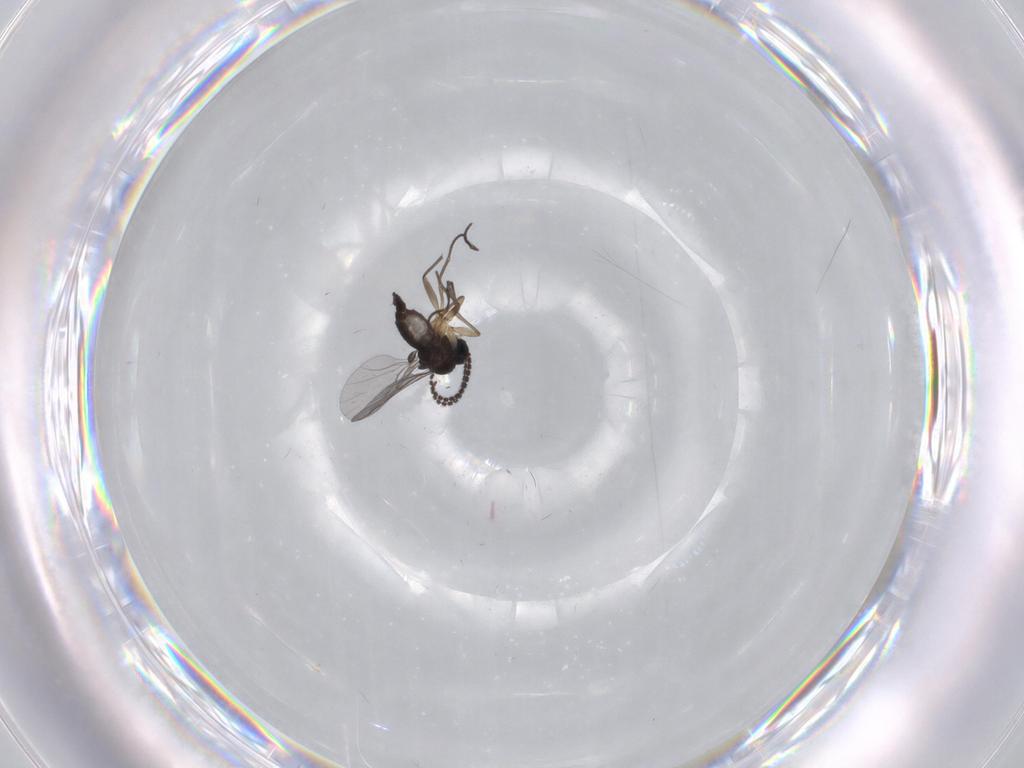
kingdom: Animalia
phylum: Arthropoda
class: Insecta
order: Diptera
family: Sciaridae
